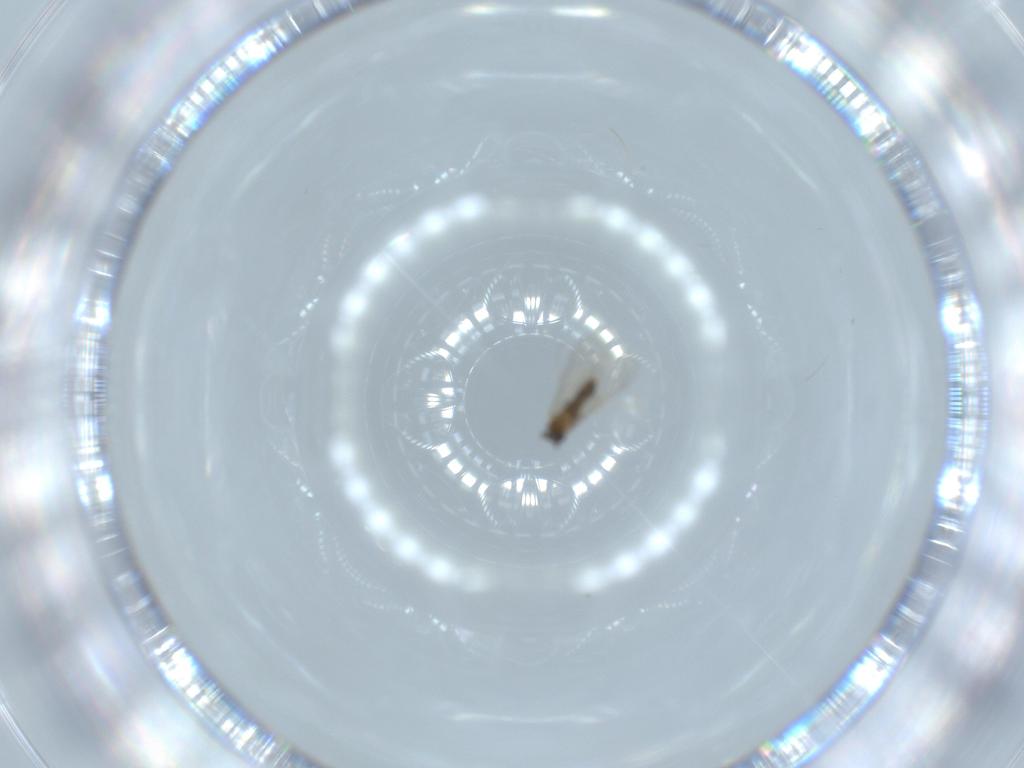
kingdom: Animalia
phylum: Arthropoda
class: Insecta
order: Diptera
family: Cecidomyiidae
